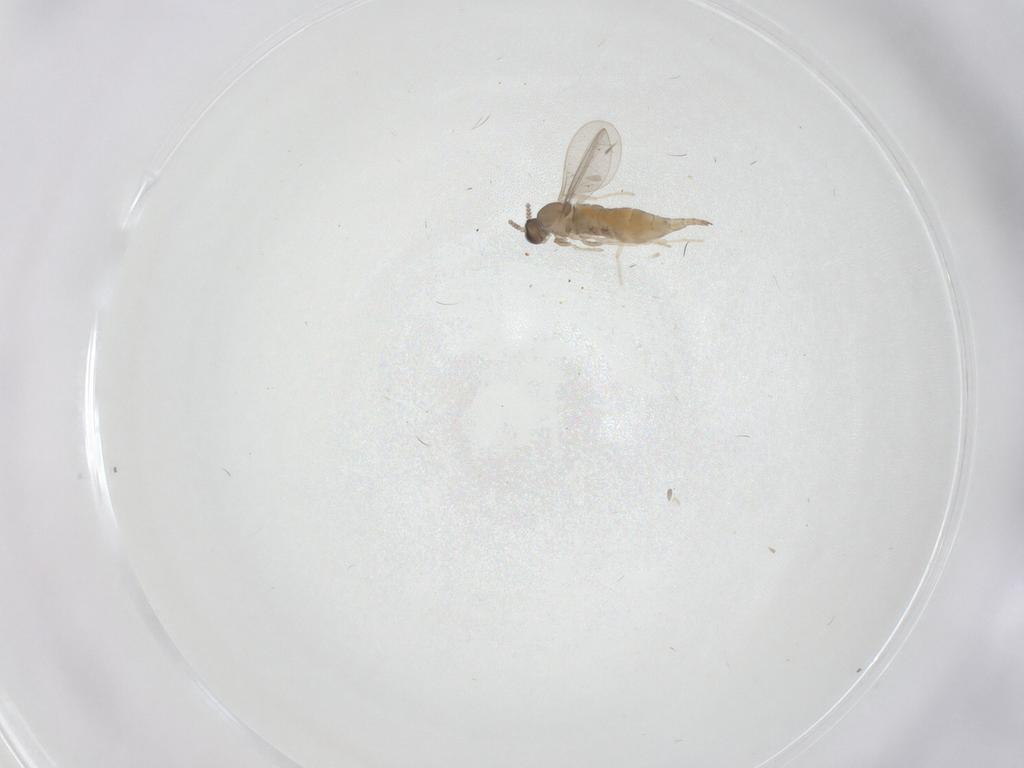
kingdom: Animalia
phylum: Arthropoda
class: Insecta
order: Diptera
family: Cecidomyiidae
